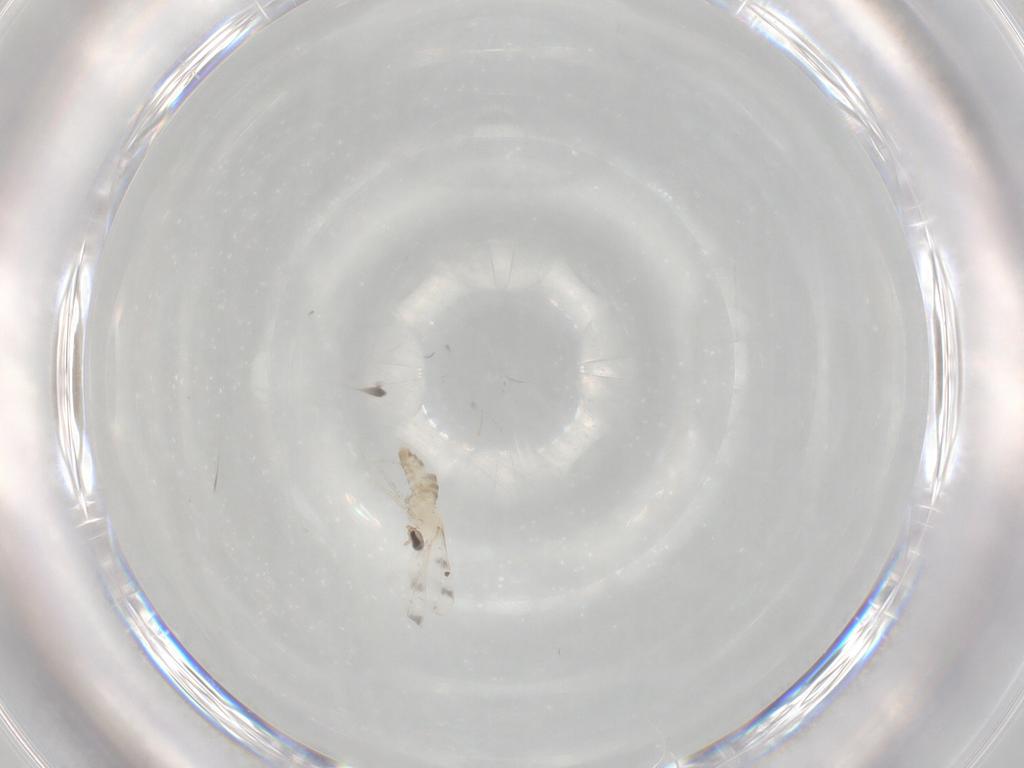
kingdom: Animalia
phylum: Arthropoda
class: Insecta
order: Diptera
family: Cecidomyiidae
